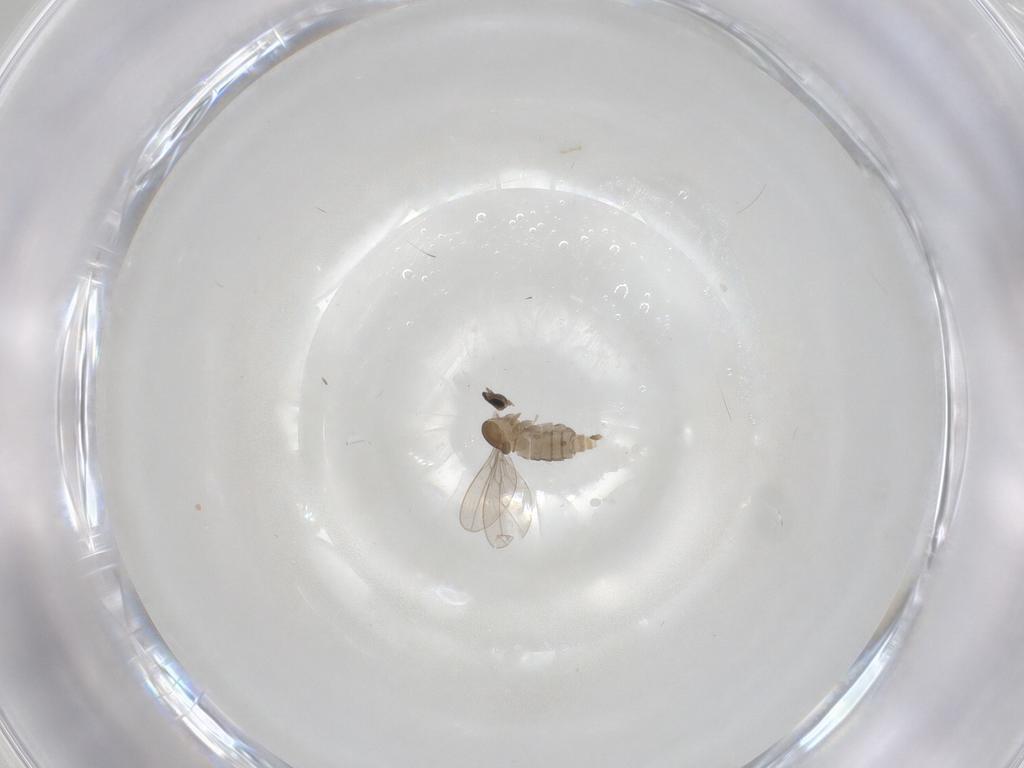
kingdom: Animalia
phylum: Arthropoda
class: Insecta
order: Diptera
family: Cecidomyiidae
